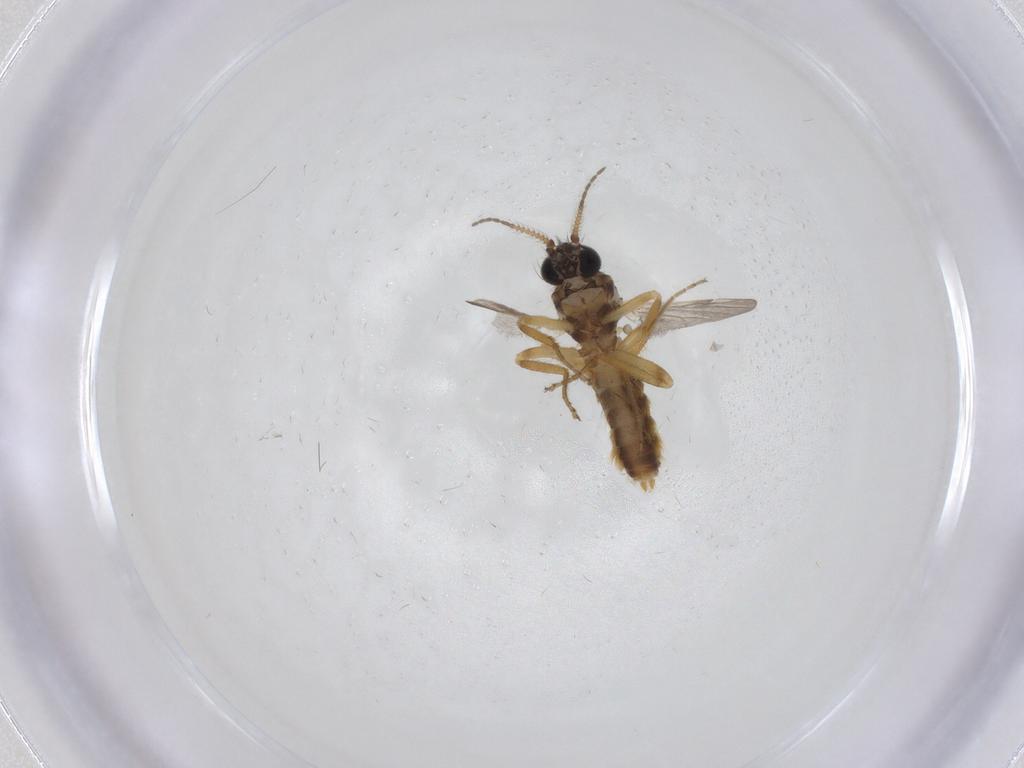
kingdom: Animalia
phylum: Arthropoda
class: Insecta
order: Diptera
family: Ceratopogonidae
